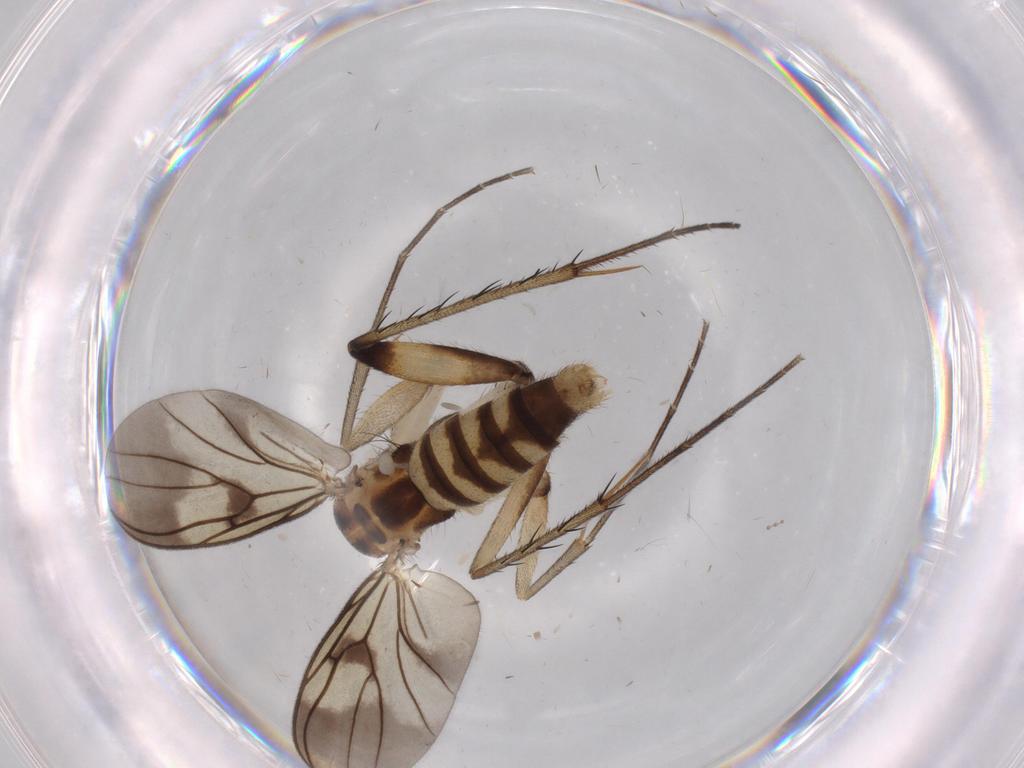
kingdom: Animalia
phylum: Arthropoda
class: Insecta
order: Diptera
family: Mycetophilidae
